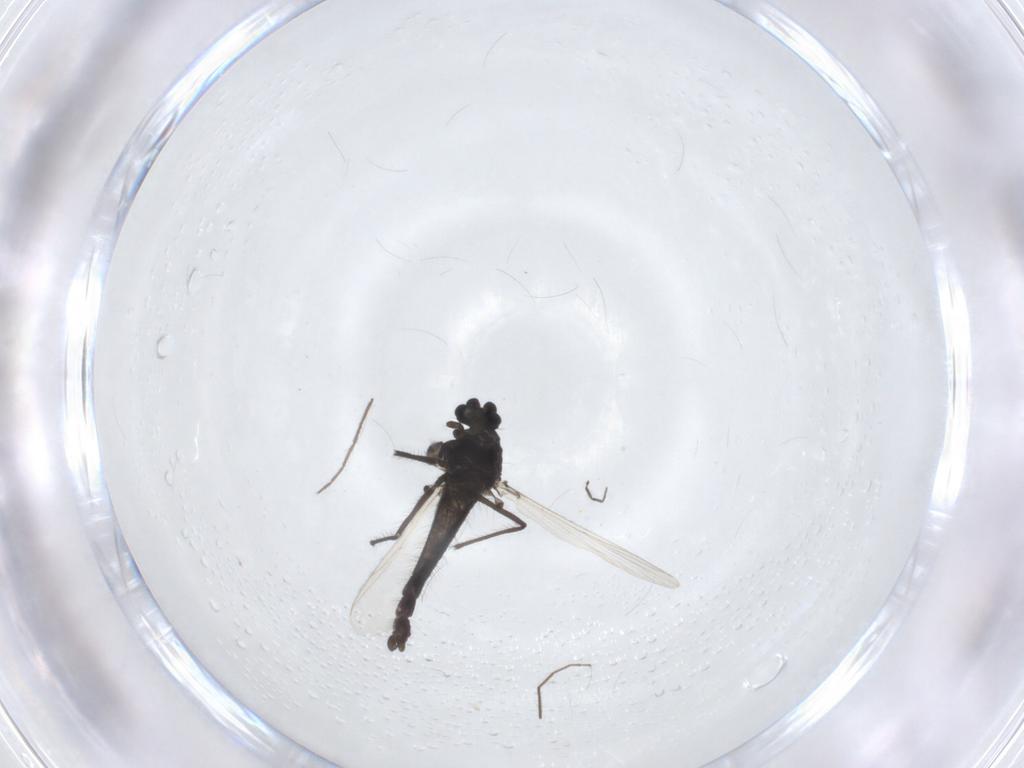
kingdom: Animalia
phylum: Arthropoda
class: Insecta
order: Diptera
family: Chironomidae
